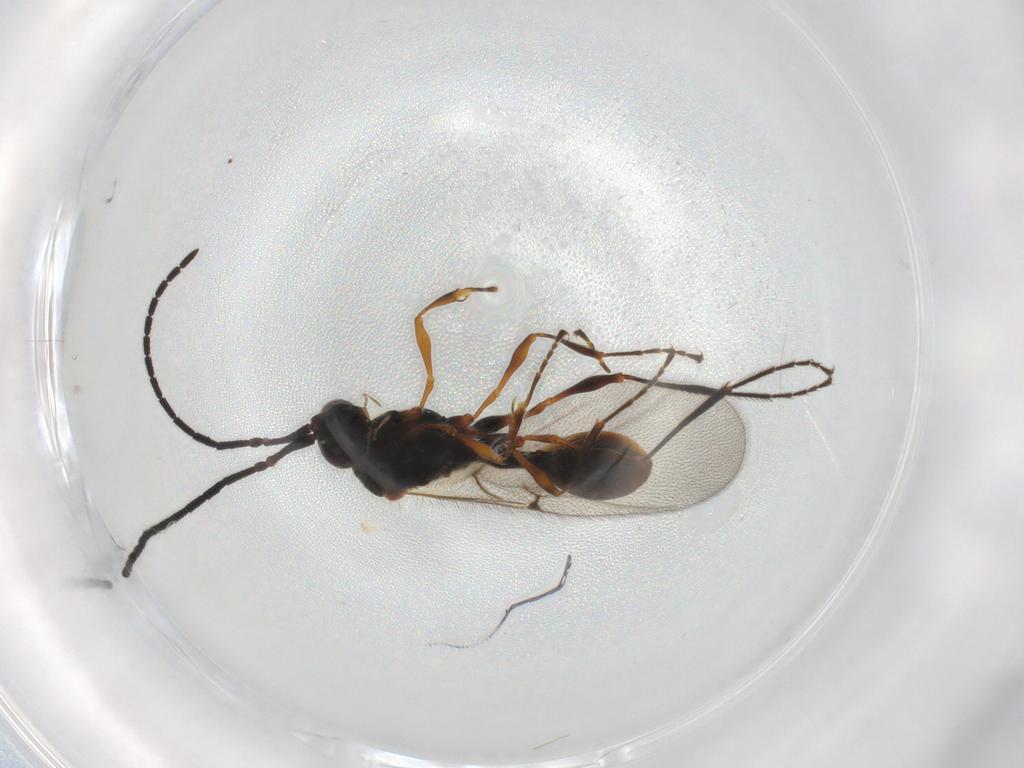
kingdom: Animalia
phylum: Arthropoda
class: Insecta
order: Hymenoptera
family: Diapriidae
